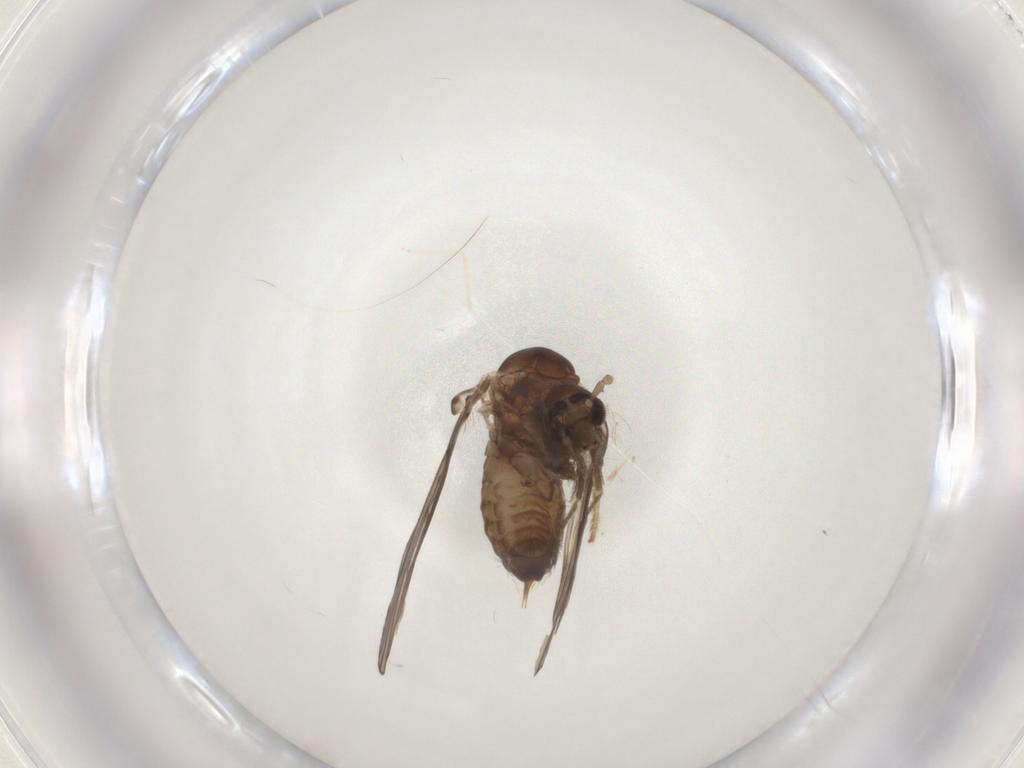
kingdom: Animalia
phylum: Arthropoda
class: Insecta
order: Diptera
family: Psychodidae
